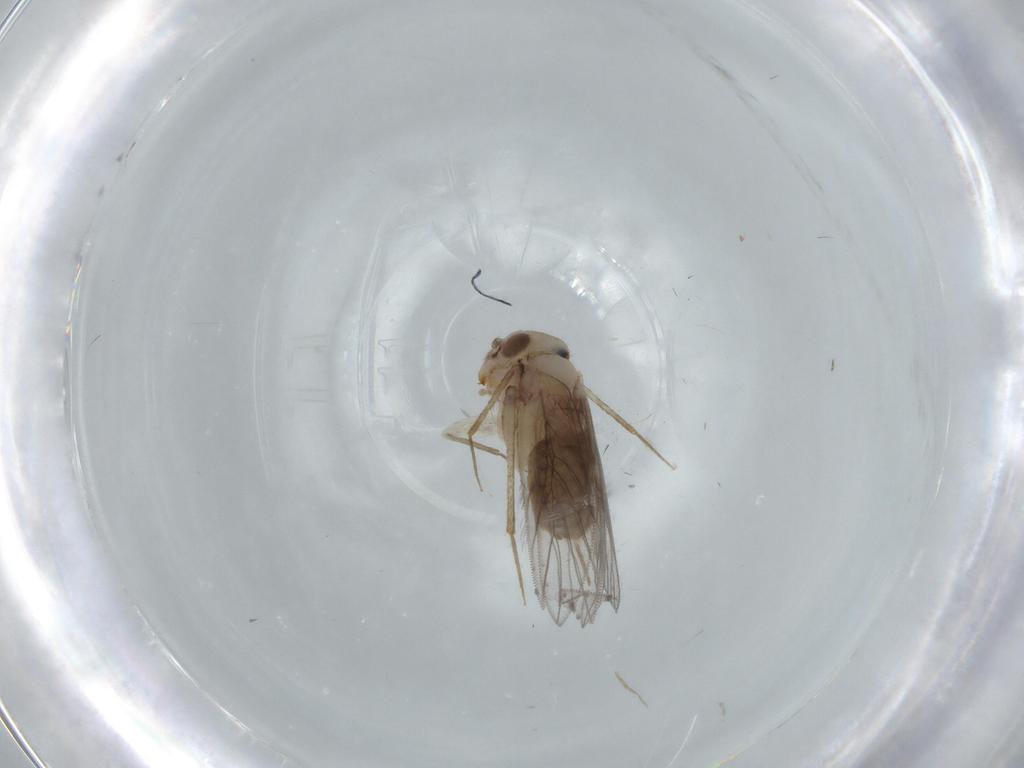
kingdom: Animalia
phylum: Arthropoda
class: Insecta
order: Psocodea
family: Lepidopsocidae
